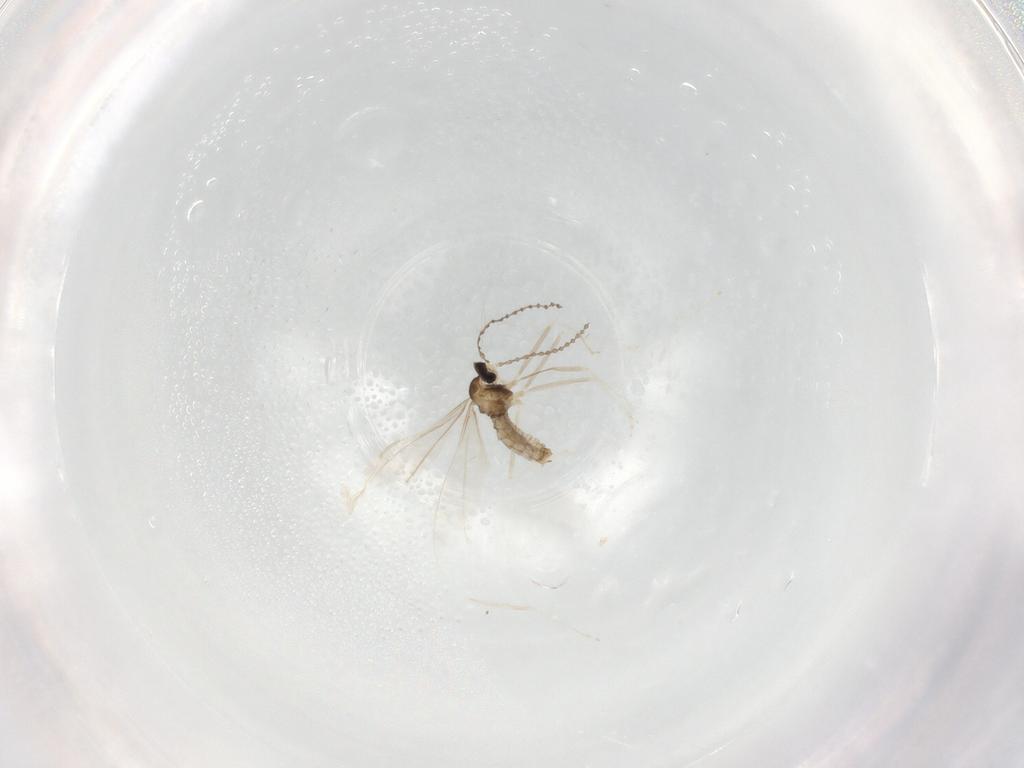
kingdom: Animalia
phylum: Arthropoda
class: Insecta
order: Diptera
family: Cecidomyiidae
